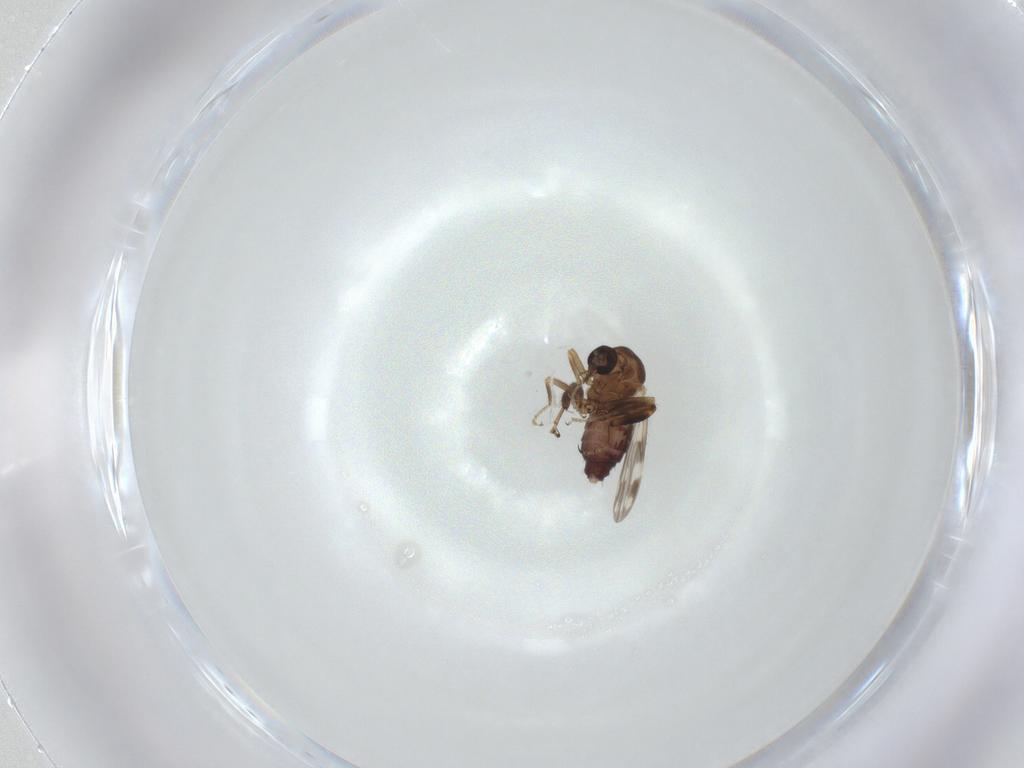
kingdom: Animalia
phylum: Arthropoda
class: Insecta
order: Diptera
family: Ceratopogonidae
